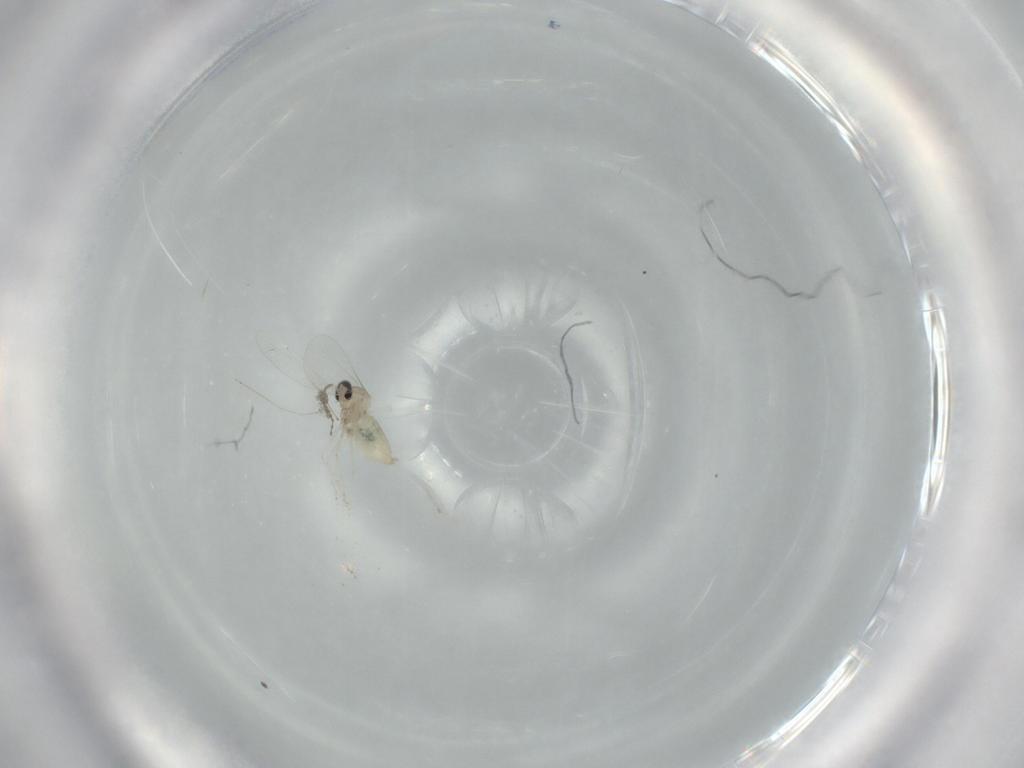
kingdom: Animalia
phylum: Arthropoda
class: Insecta
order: Diptera
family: Cecidomyiidae
